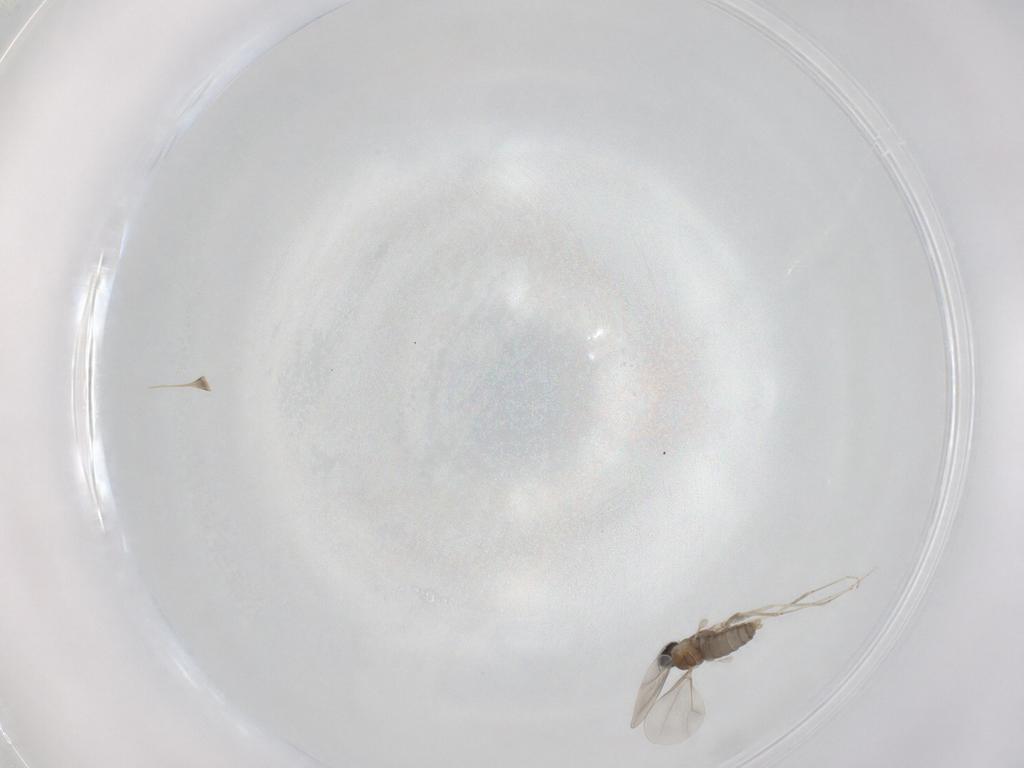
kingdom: Animalia
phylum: Arthropoda
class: Insecta
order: Diptera
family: Cecidomyiidae
